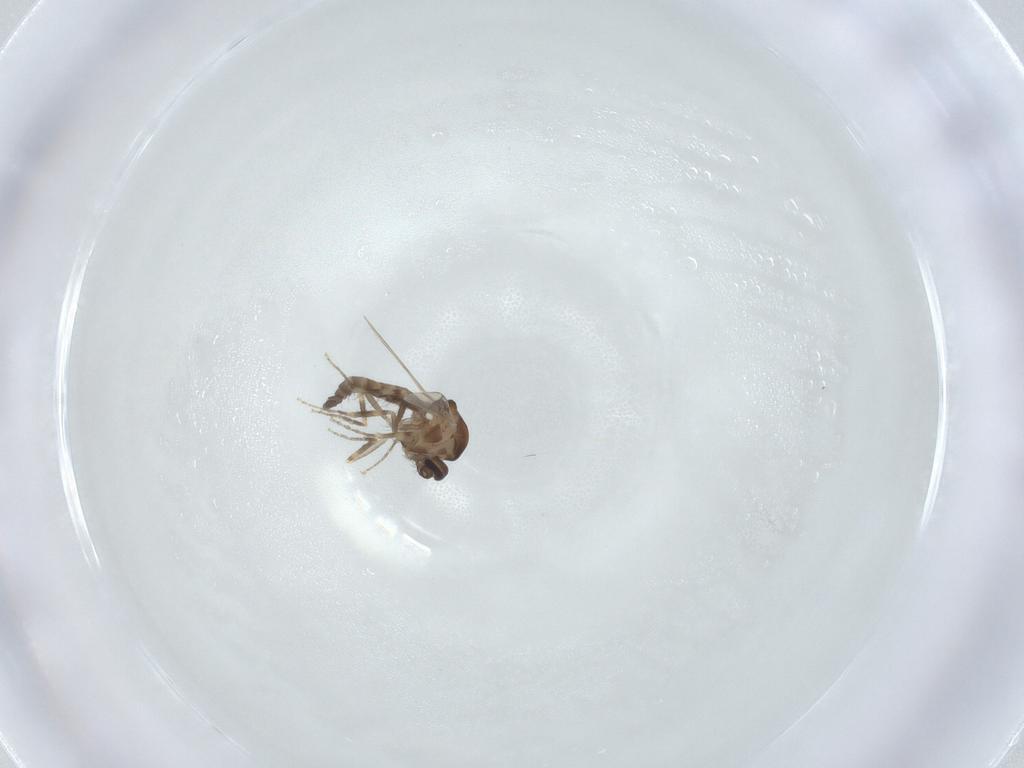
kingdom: Animalia
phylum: Arthropoda
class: Insecta
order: Diptera
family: Ceratopogonidae
